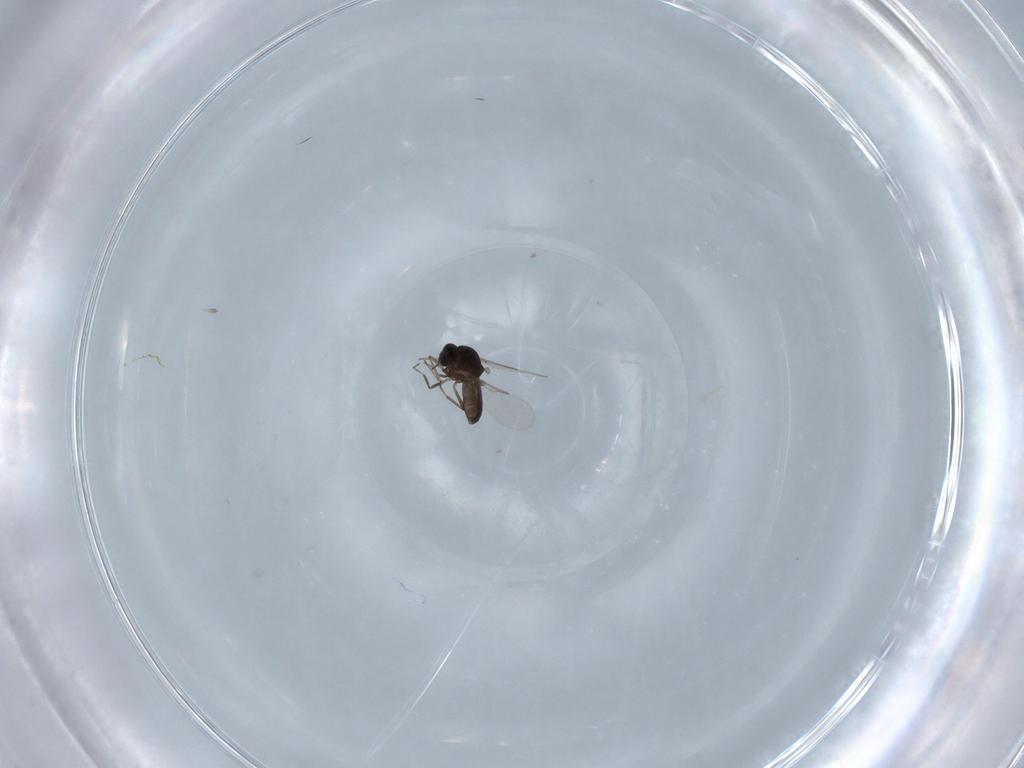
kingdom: Animalia
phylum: Arthropoda
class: Insecta
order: Diptera
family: Ceratopogonidae
